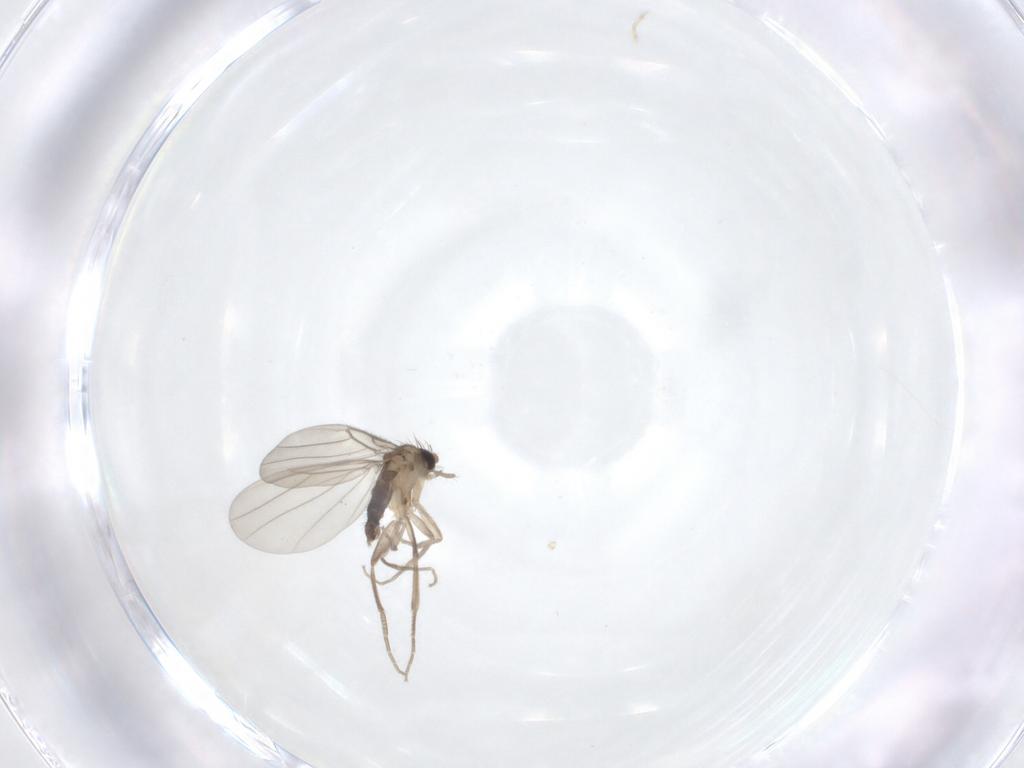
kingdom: Animalia
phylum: Arthropoda
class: Insecta
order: Diptera
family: Phoridae
